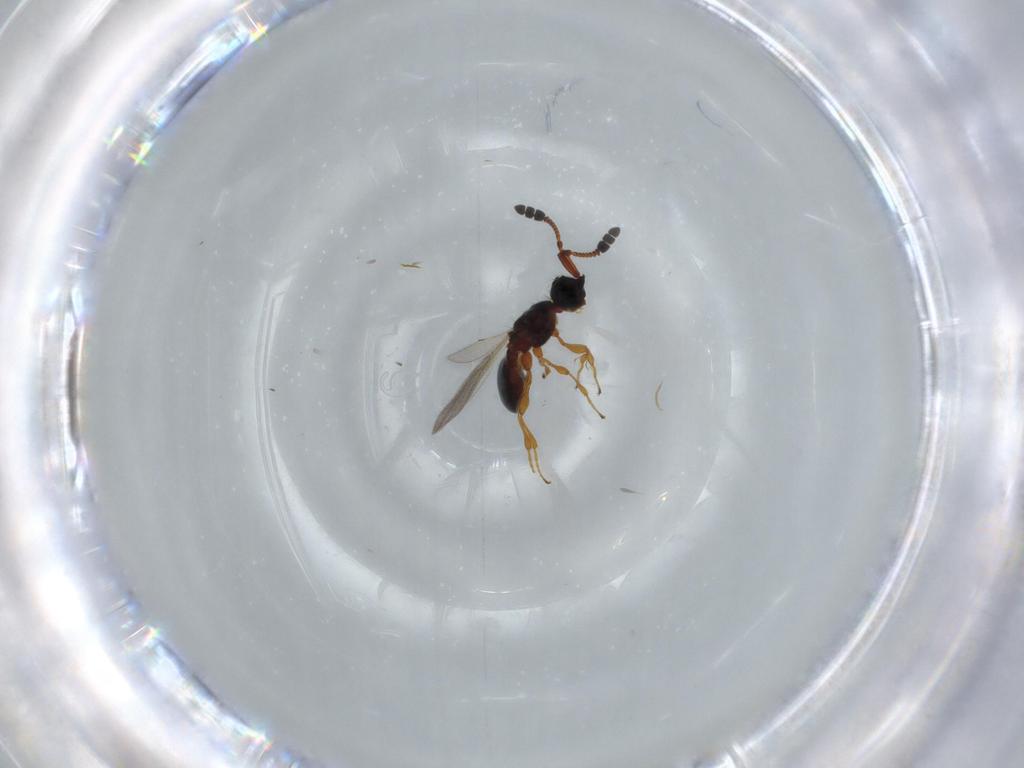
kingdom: Animalia
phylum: Arthropoda
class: Insecta
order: Hymenoptera
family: Diapriidae
